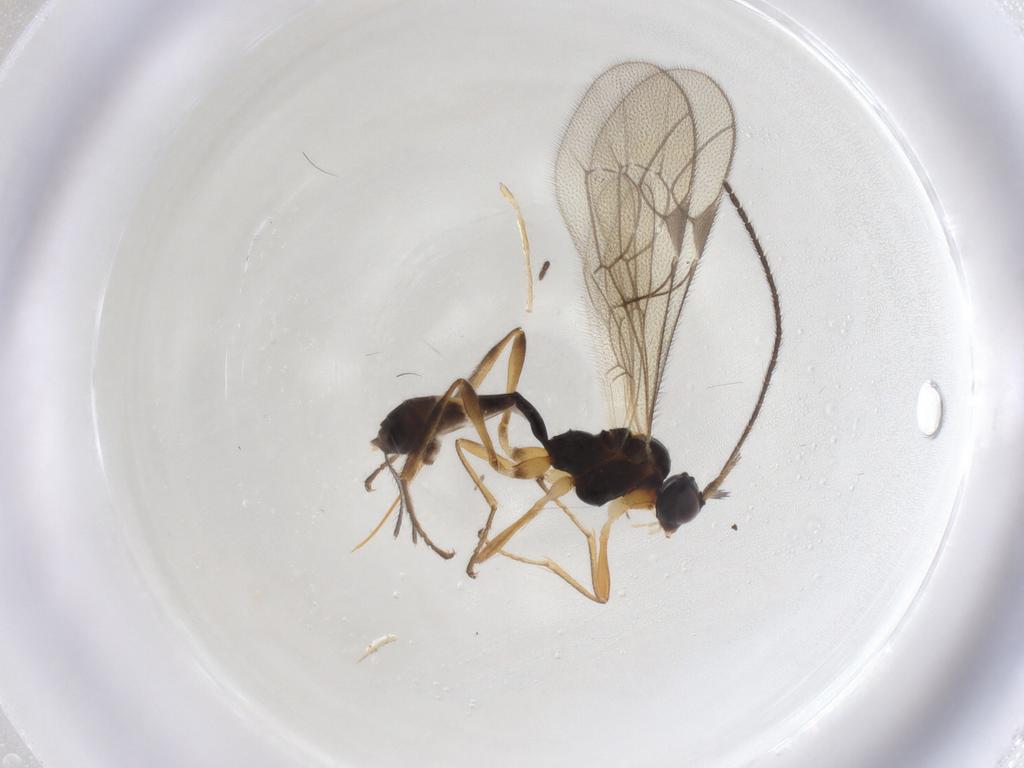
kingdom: Animalia
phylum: Arthropoda
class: Insecta
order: Hymenoptera
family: Ichneumonidae
